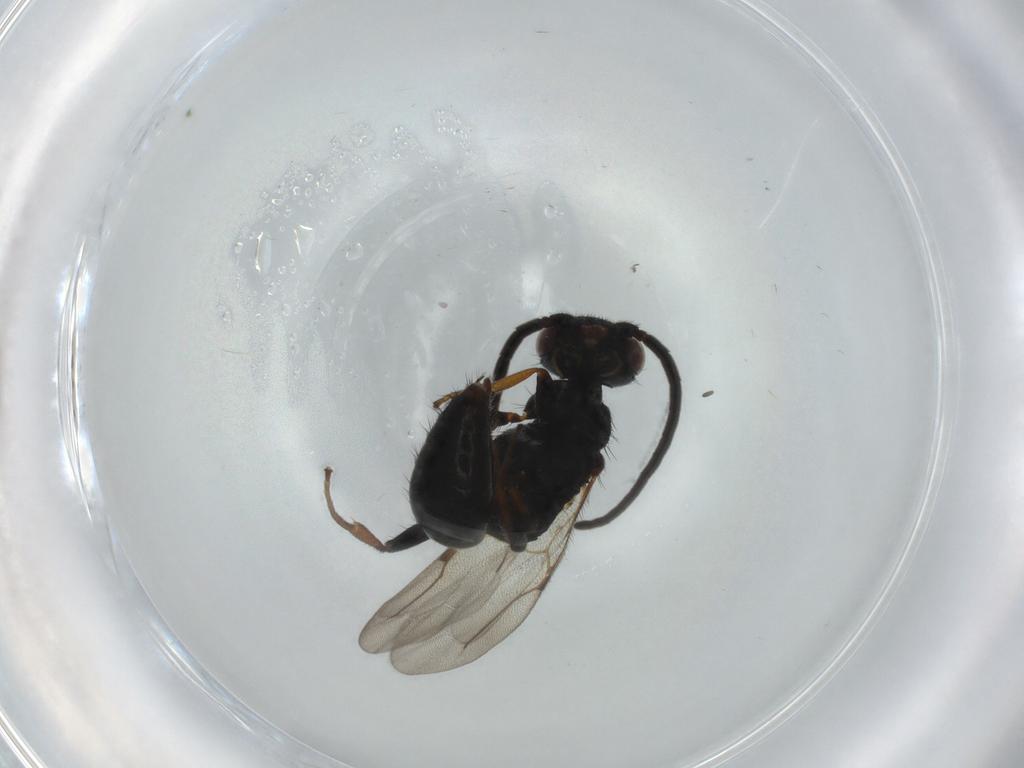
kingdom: Animalia
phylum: Arthropoda
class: Insecta
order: Hymenoptera
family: Bethylidae
